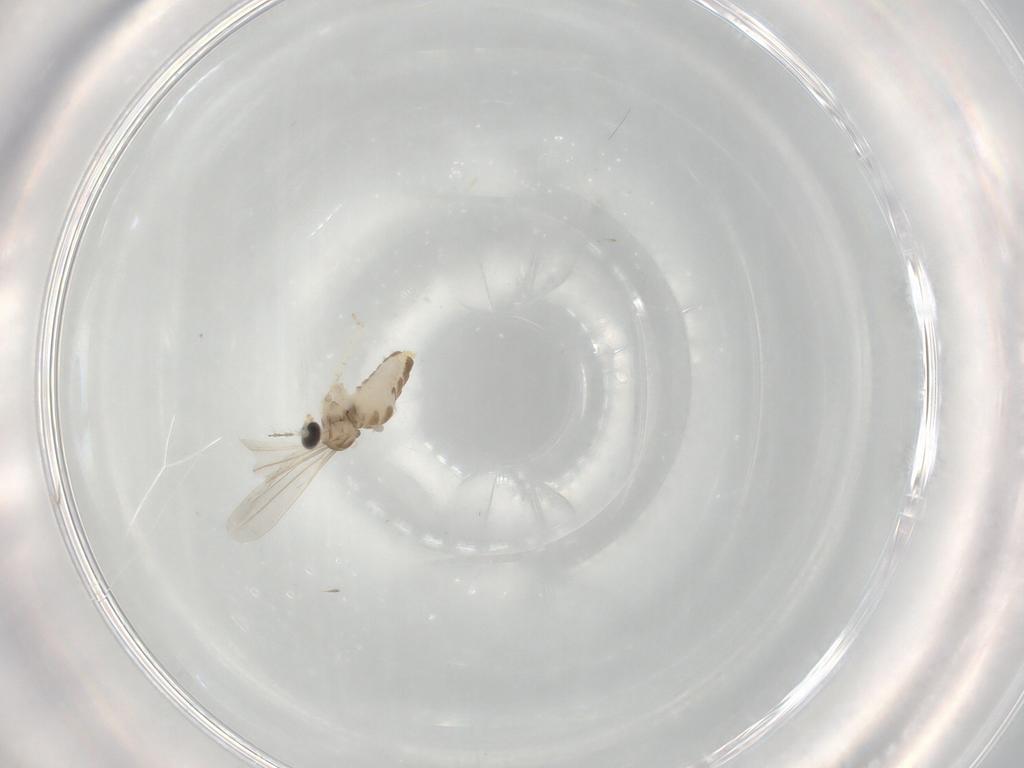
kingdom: Animalia
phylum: Arthropoda
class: Insecta
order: Diptera
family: Cecidomyiidae
